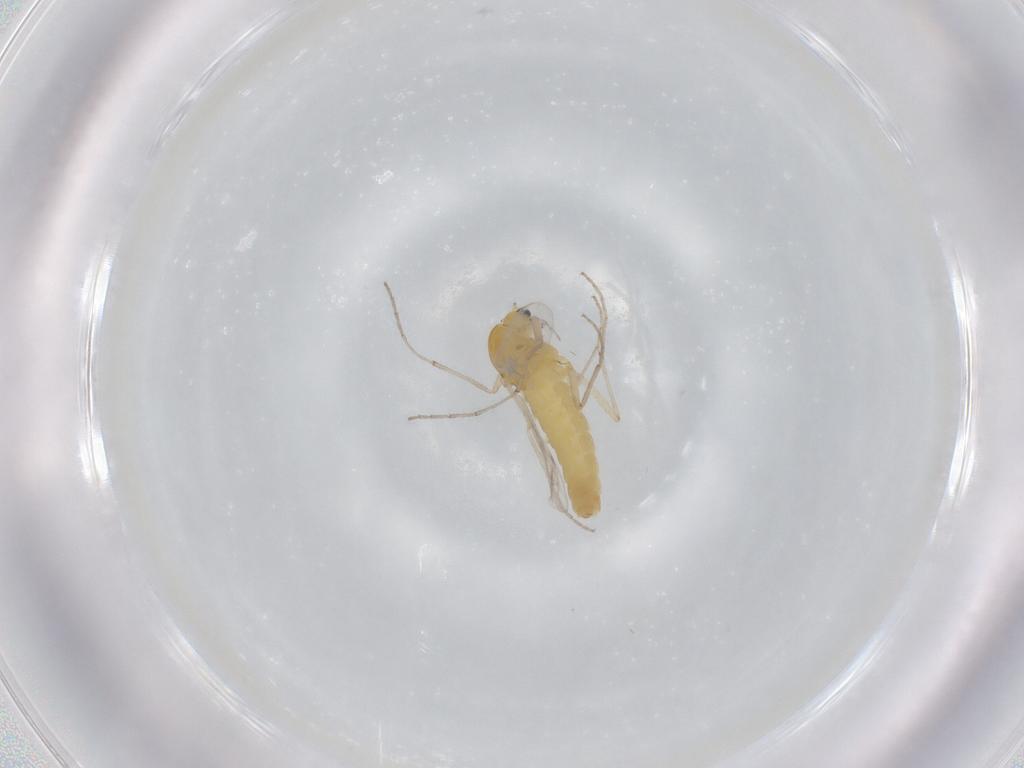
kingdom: Animalia
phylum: Arthropoda
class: Insecta
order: Diptera
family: Chironomidae
